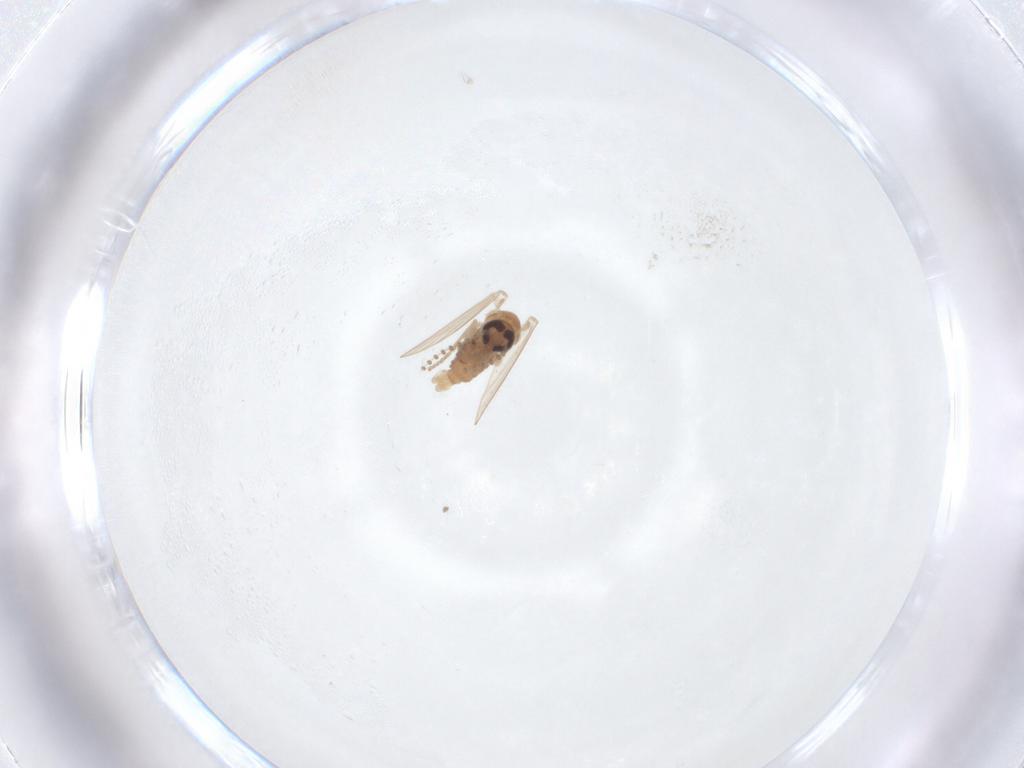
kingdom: Animalia
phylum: Arthropoda
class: Insecta
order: Diptera
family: Psychodidae
